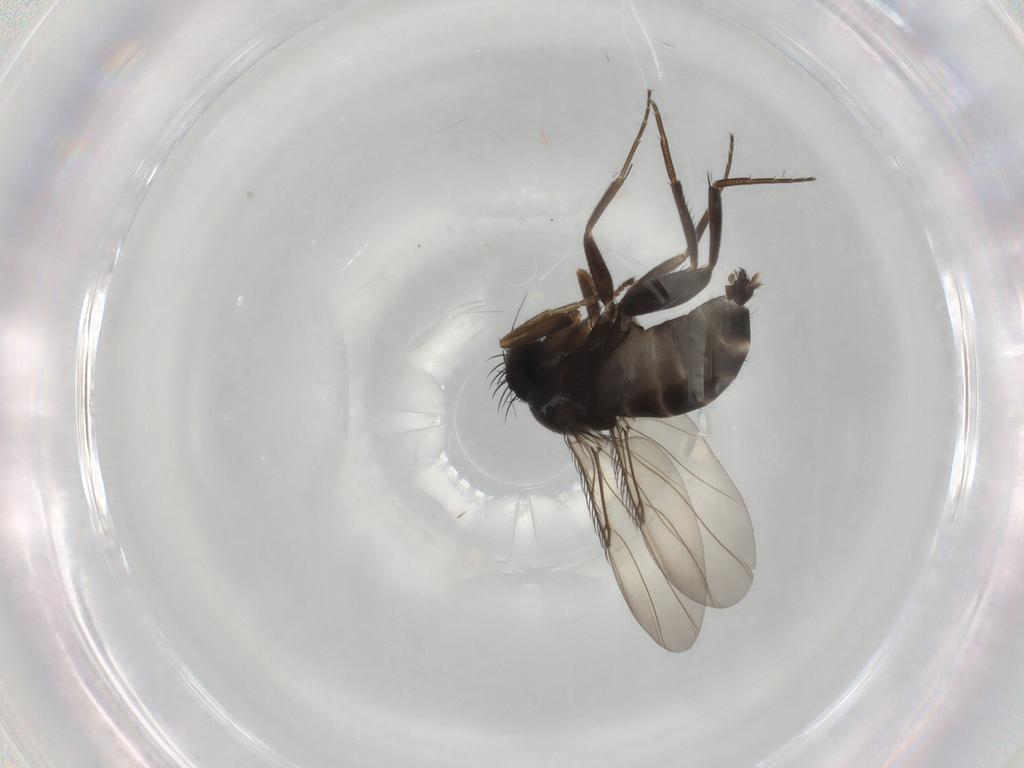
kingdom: Animalia
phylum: Arthropoda
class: Insecta
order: Diptera
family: Phoridae
